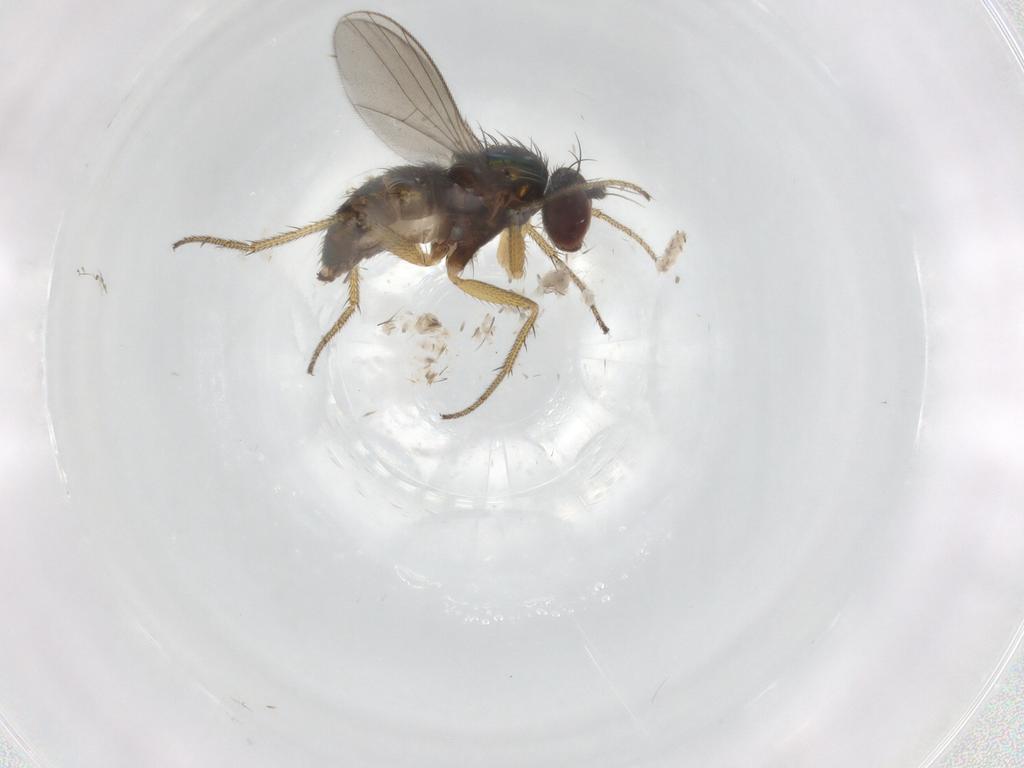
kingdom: Animalia
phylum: Arthropoda
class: Insecta
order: Diptera
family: Dolichopodidae
